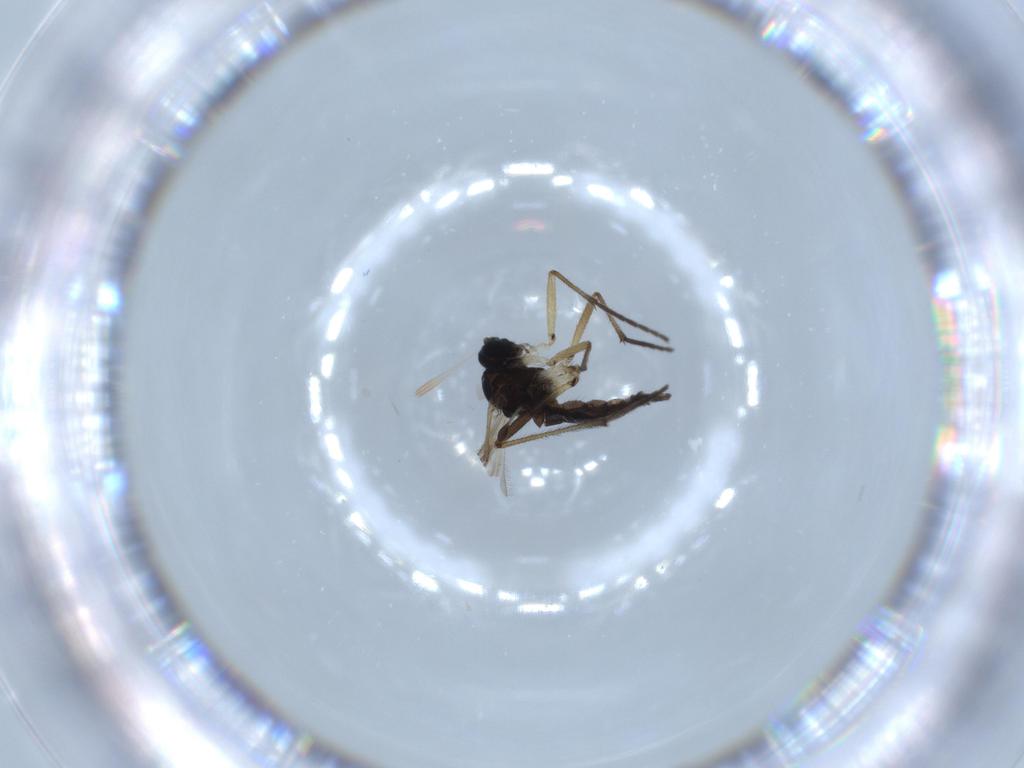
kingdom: Animalia
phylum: Arthropoda
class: Insecta
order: Diptera
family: Sciaridae
